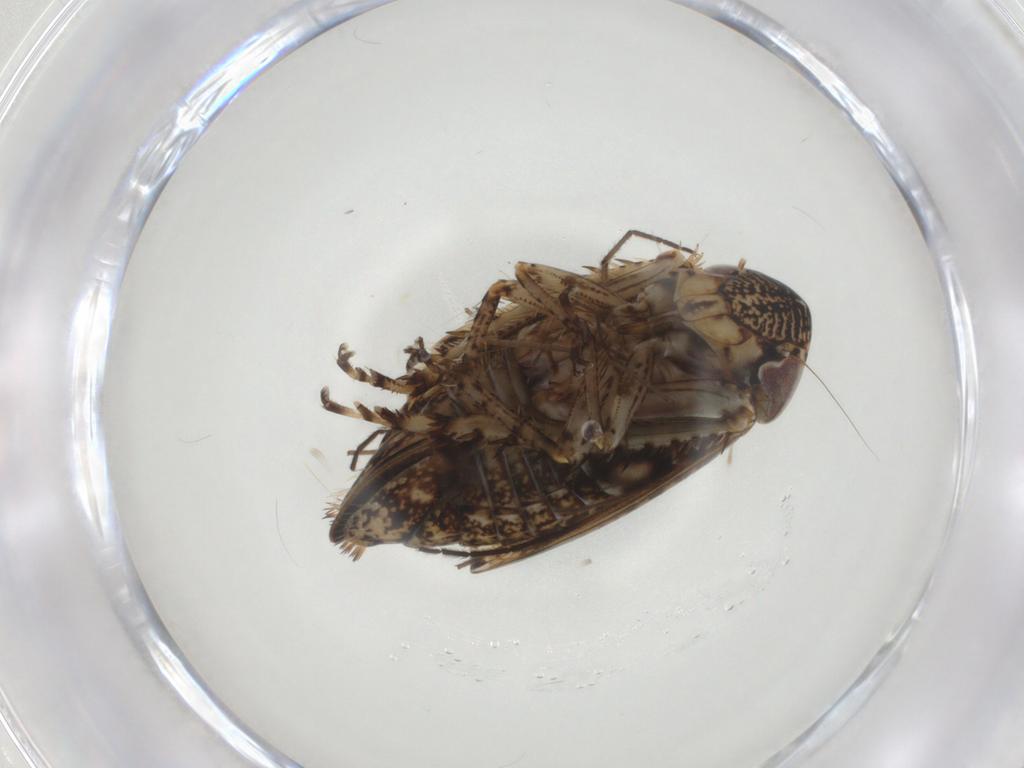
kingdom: Animalia
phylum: Arthropoda
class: Insecta
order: Hemiptera
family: Cicadellidae
